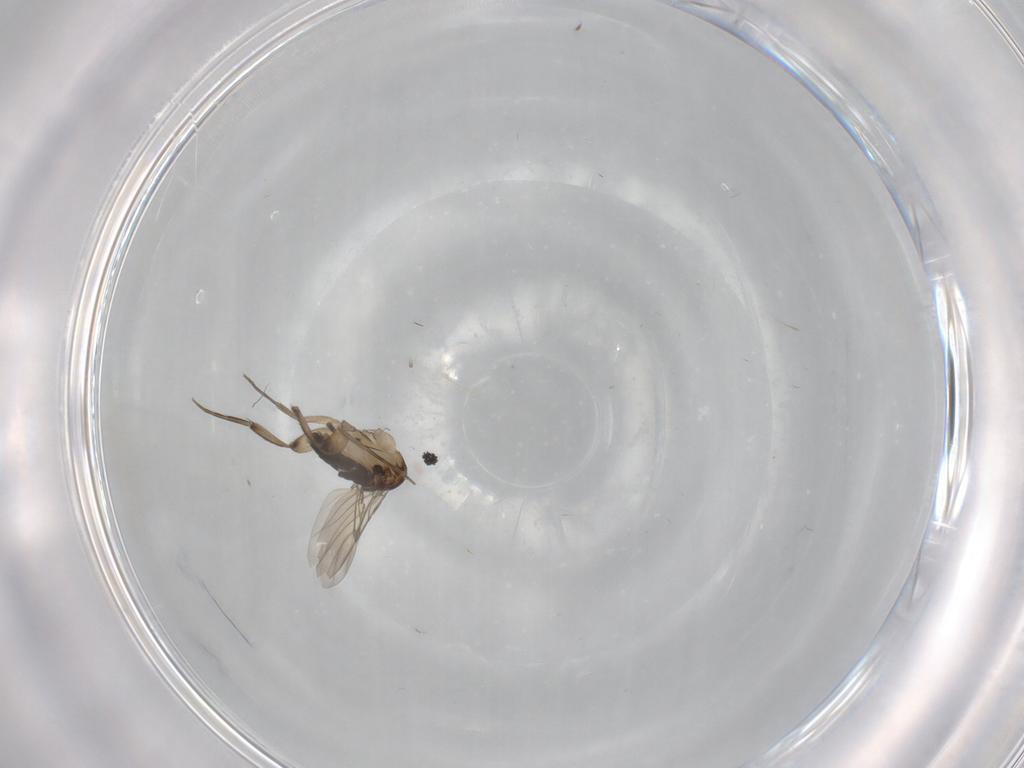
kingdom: Animalia
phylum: Arthropoda
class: Insecta
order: Diptera
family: Phoridae
